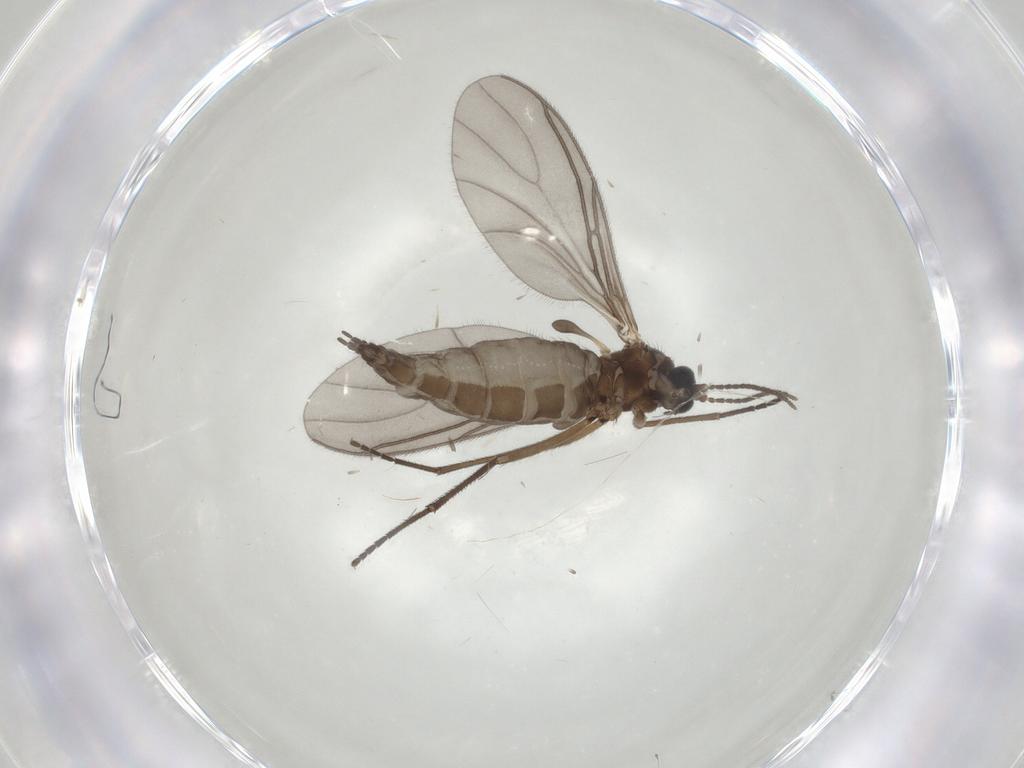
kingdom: Animalia
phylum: Arthropoda
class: Insecta
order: Diptera
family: Sciaridae
